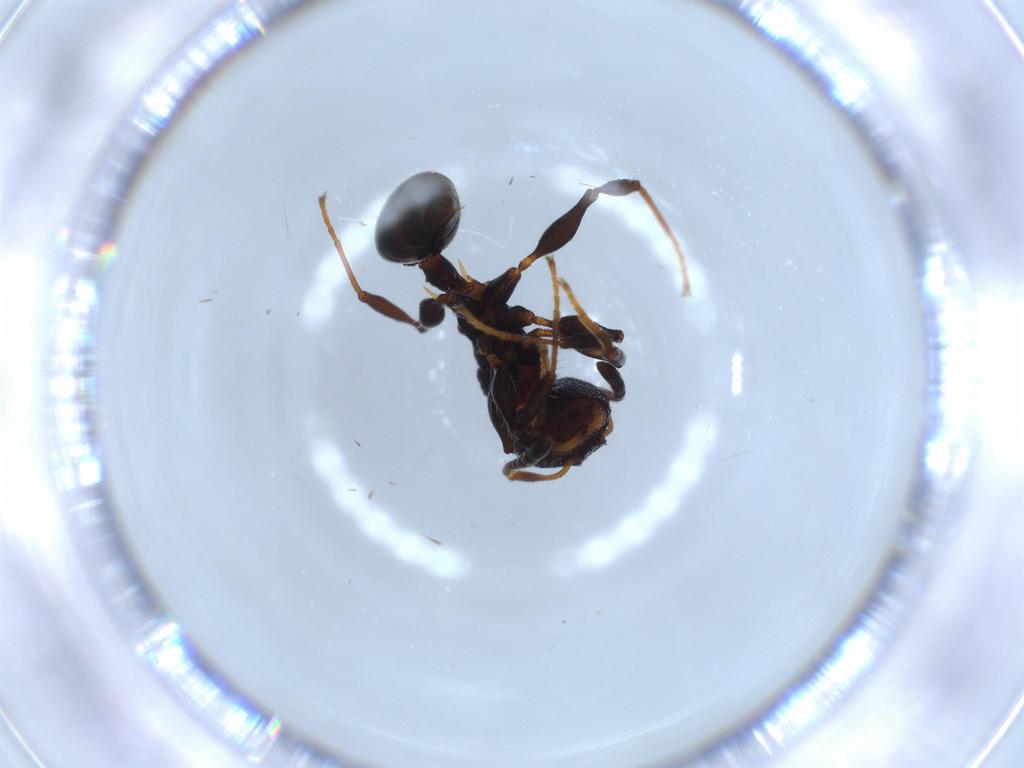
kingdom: Animalia
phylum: Arthropoda
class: Insecta
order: Hymenoptera
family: Formicidae
